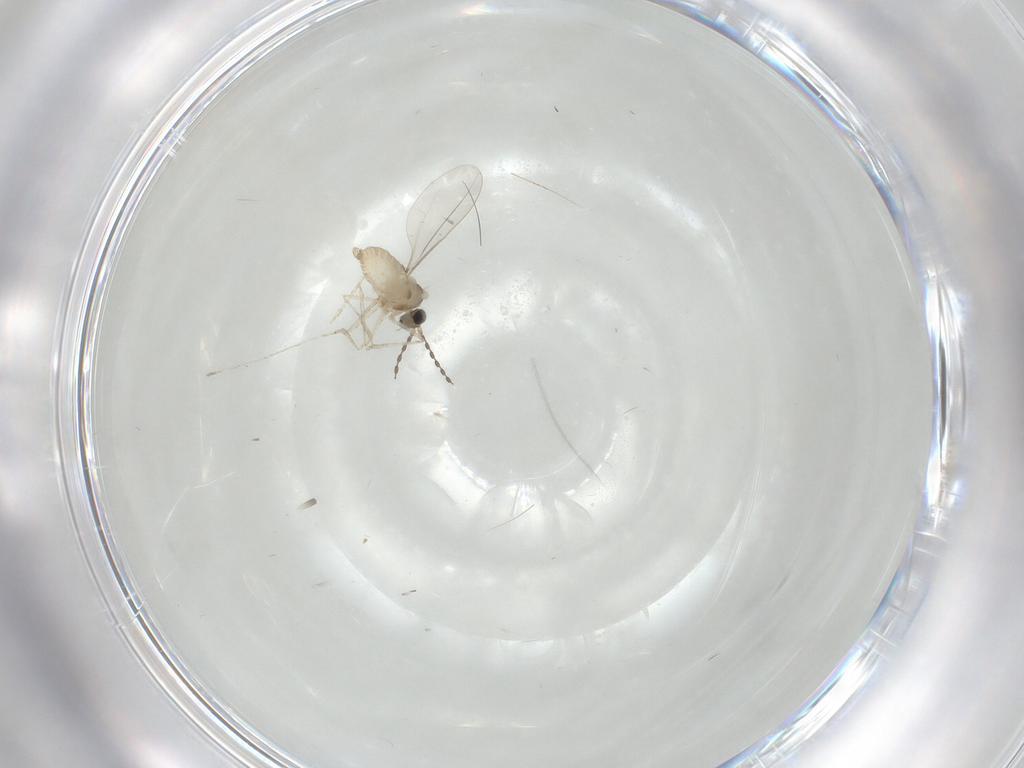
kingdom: Animalia
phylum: Arthropoda
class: Insecta
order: Diptera
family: Cecidomyiidae
